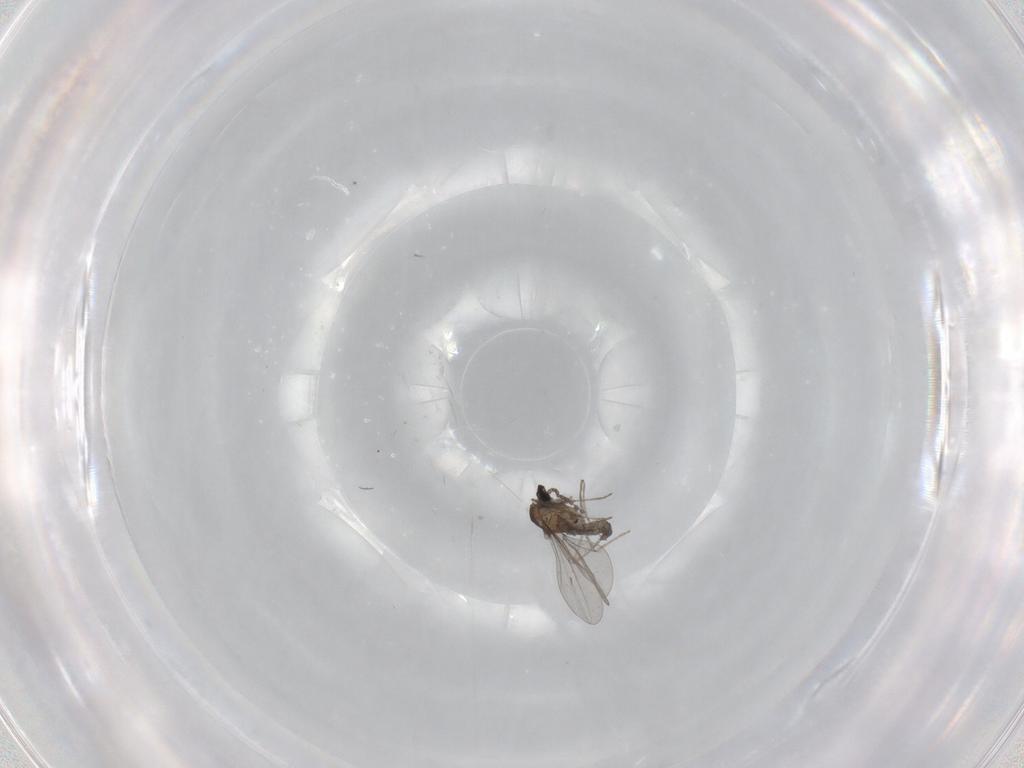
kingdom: Animalia
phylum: Arthropoda
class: Insecta
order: Diptera
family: Cecidomyiidae
